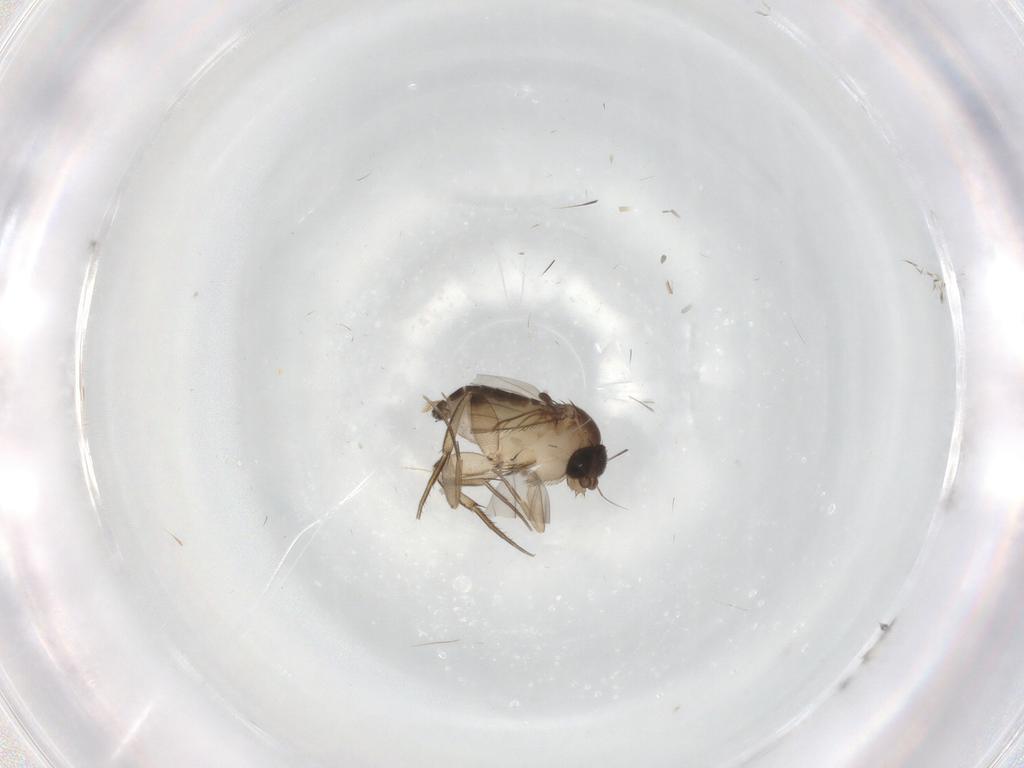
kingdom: Animalia
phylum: Arthropoda
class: Insecta
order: Diptera
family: Phoridae
